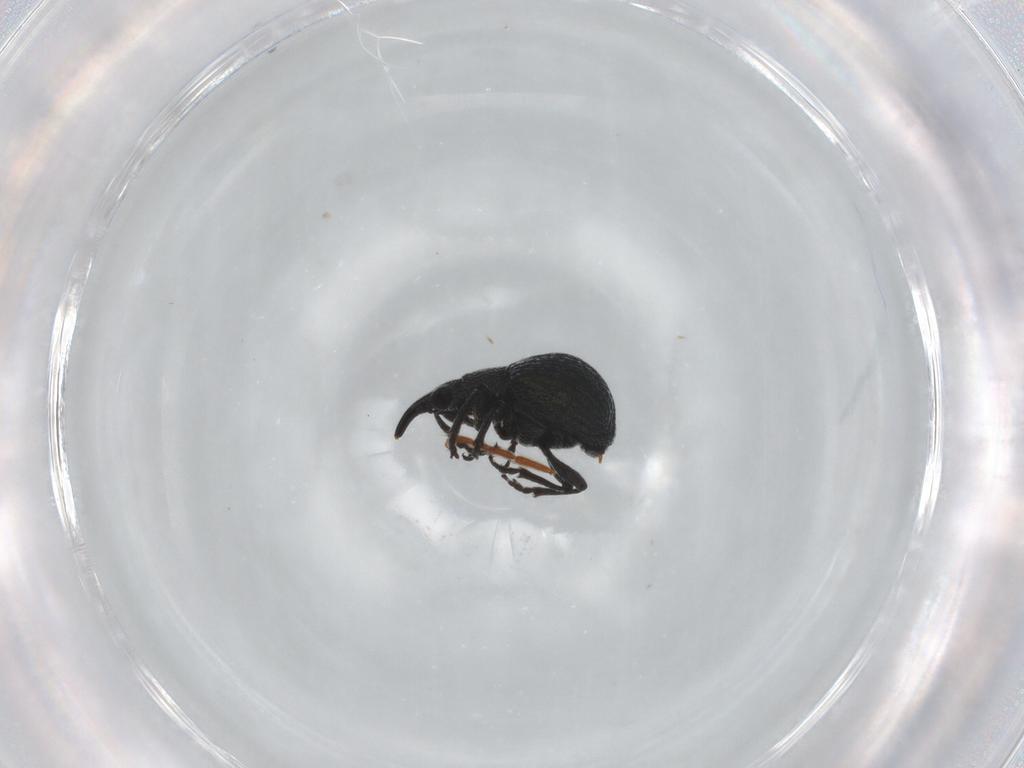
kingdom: Animalia
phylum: Arthropoda
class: Insecta
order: Coleoptera
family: Brentidae
